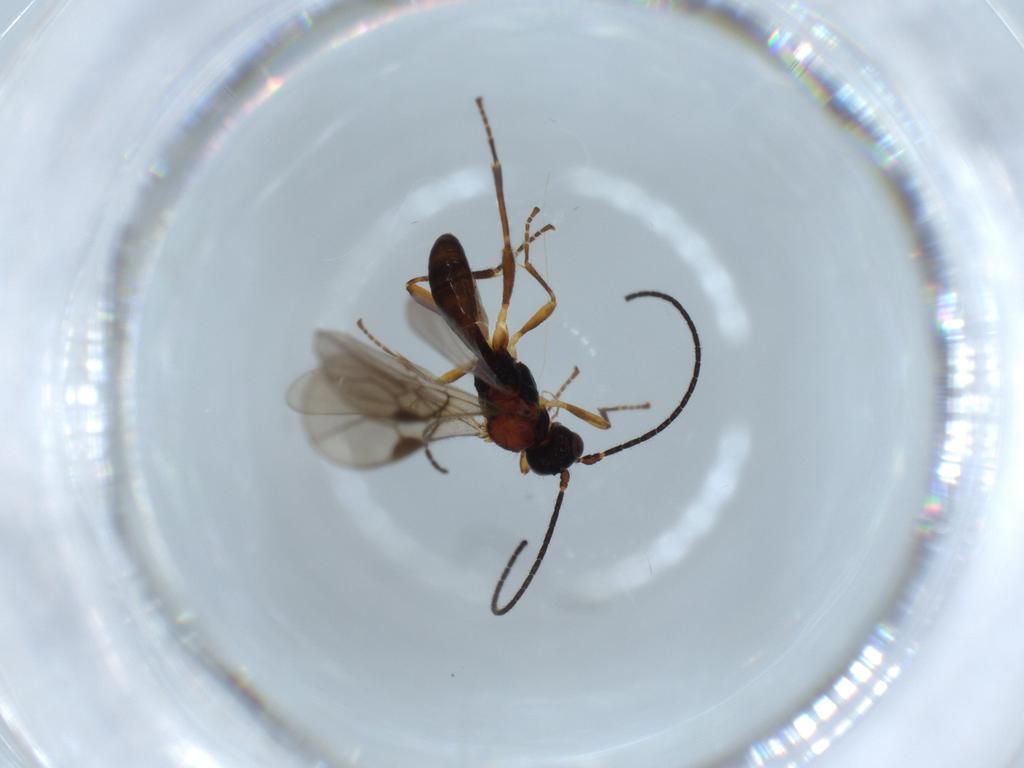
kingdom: Animalia
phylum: Arthropoda
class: Insecta
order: Hymenoptera
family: Braconidae
